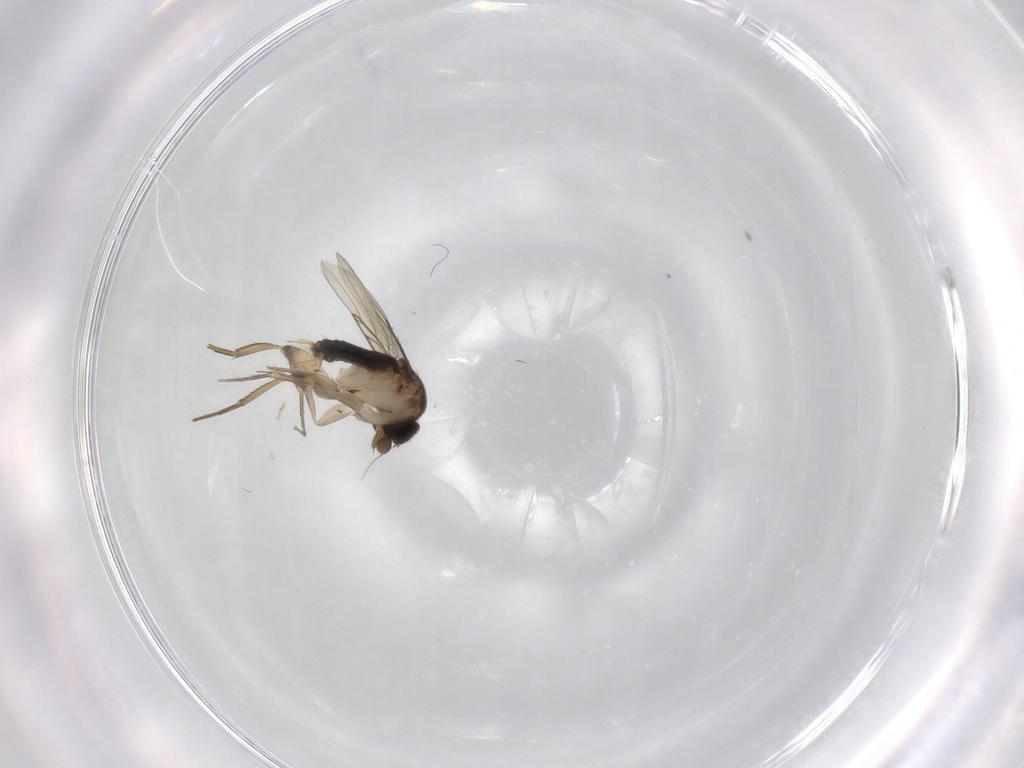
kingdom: Animalia
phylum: Arthropoda
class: Insecta
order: Diptera
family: Phoridae
